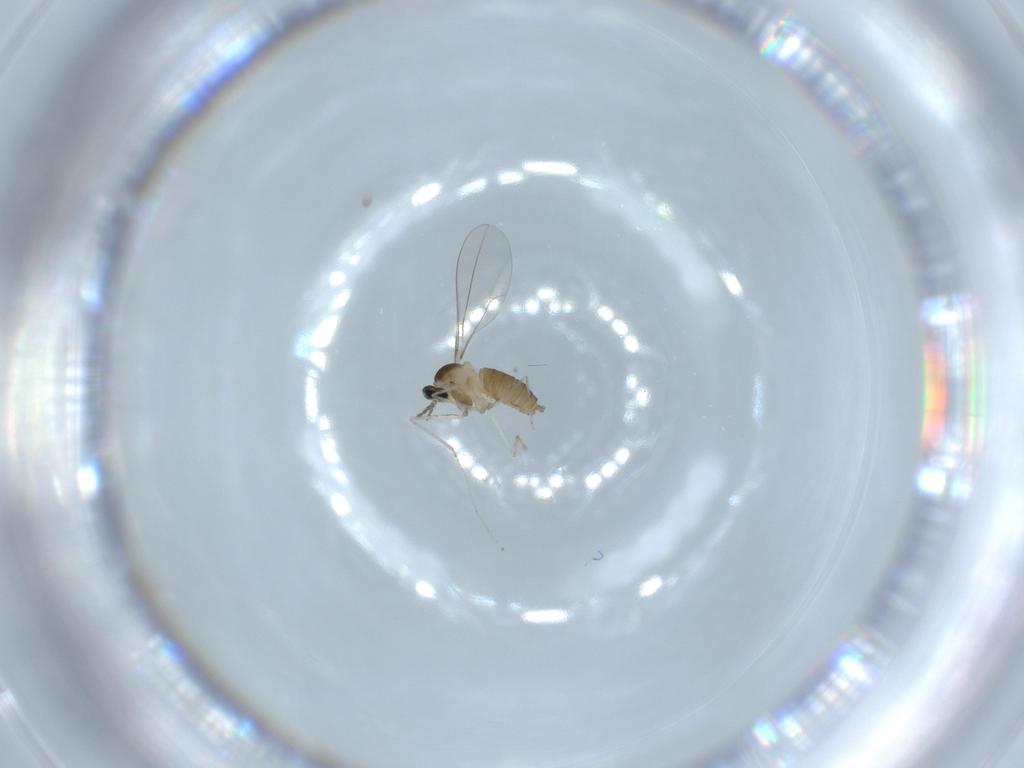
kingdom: Animalia
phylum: Arthropoda
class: Insecta
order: Diptera
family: Cecidomyiidae
